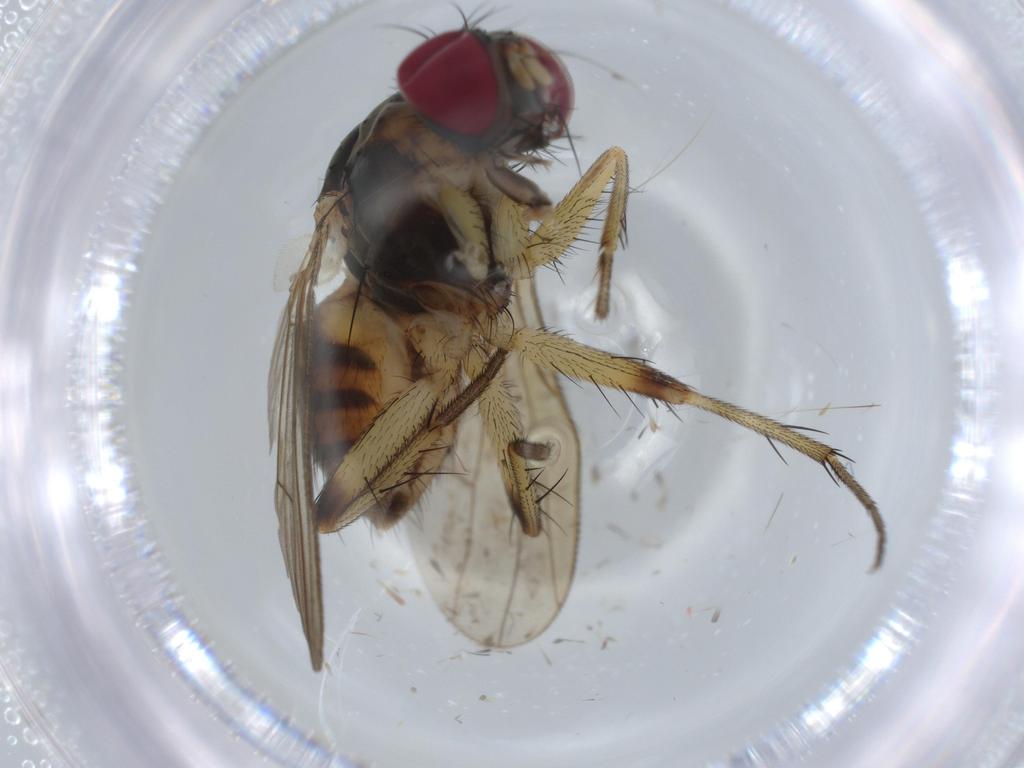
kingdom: Animalia
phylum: Arthropoda
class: Insecta
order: Diptera
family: Muscidae
